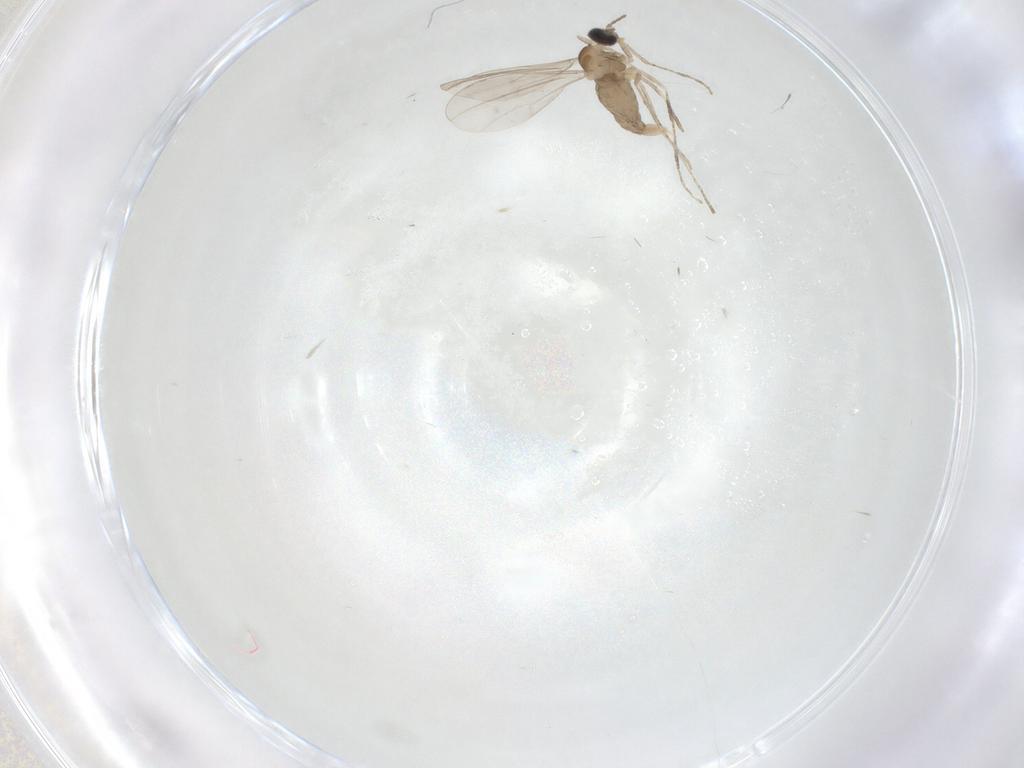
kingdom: Animalia
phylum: Arthropoda
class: Insecta
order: Diptera
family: Cecidomyiidae
